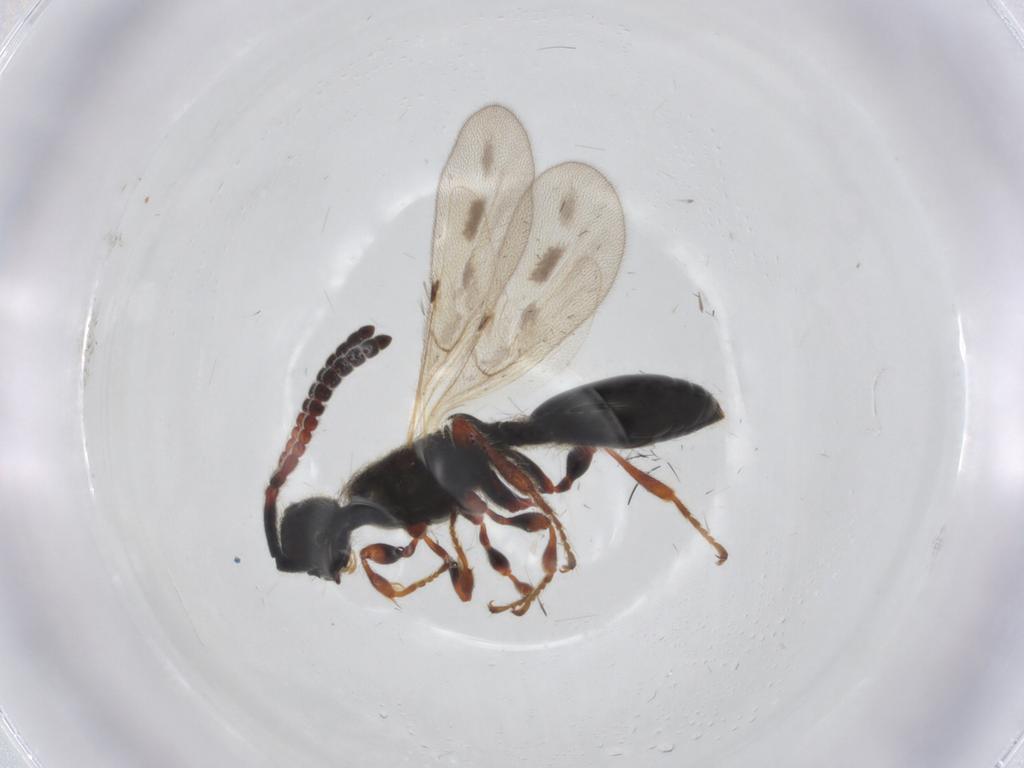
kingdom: Animalia
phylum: Arthropoda
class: Insecta
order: Hymenoptera
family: Diapriidae
